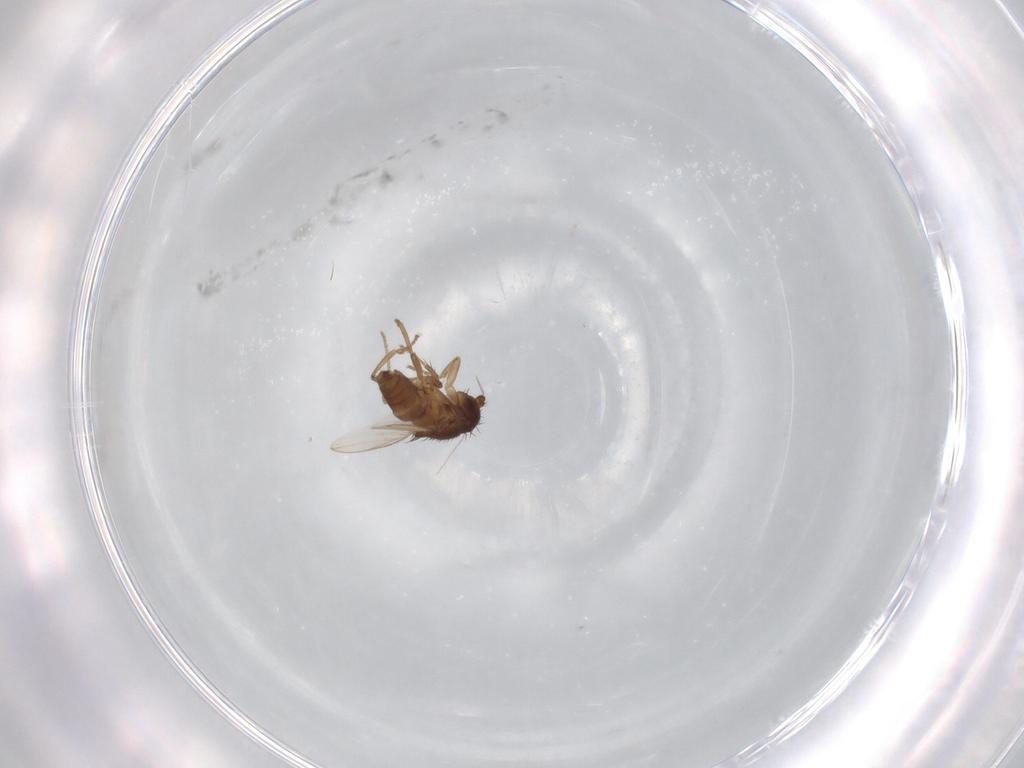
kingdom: Animalia
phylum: Arthropoda
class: Insecta
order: Diptera
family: Sphaeroceridae
